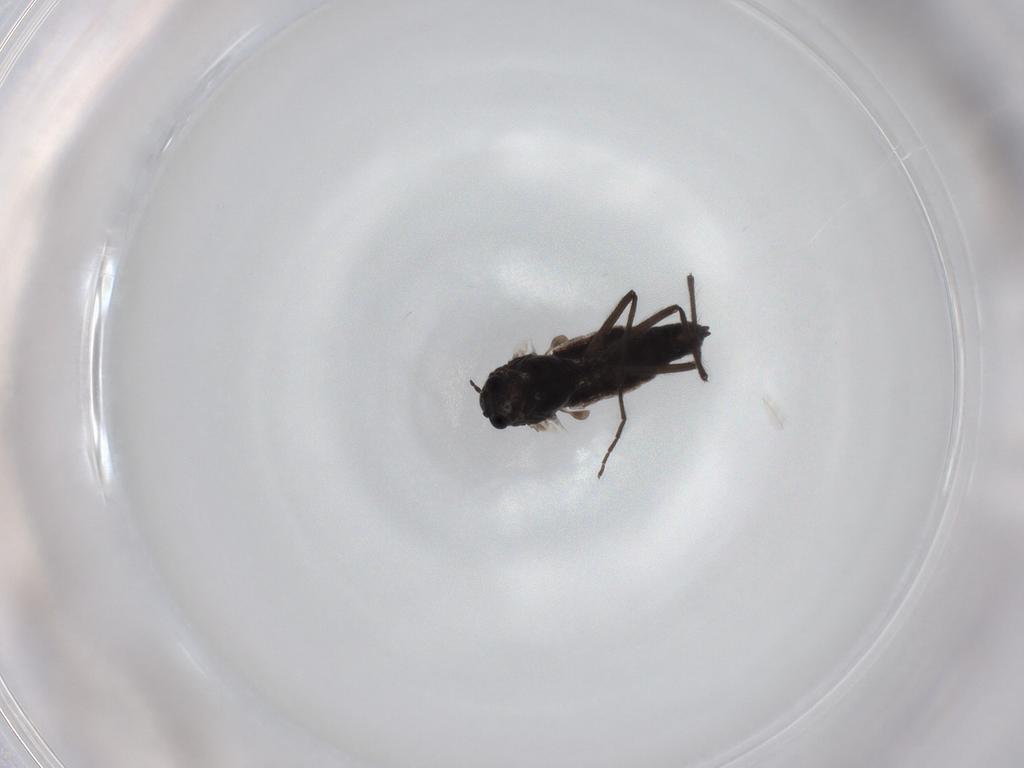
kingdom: Animalia
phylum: Arthropoda
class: Insecta
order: Diptera
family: Chironomidae
